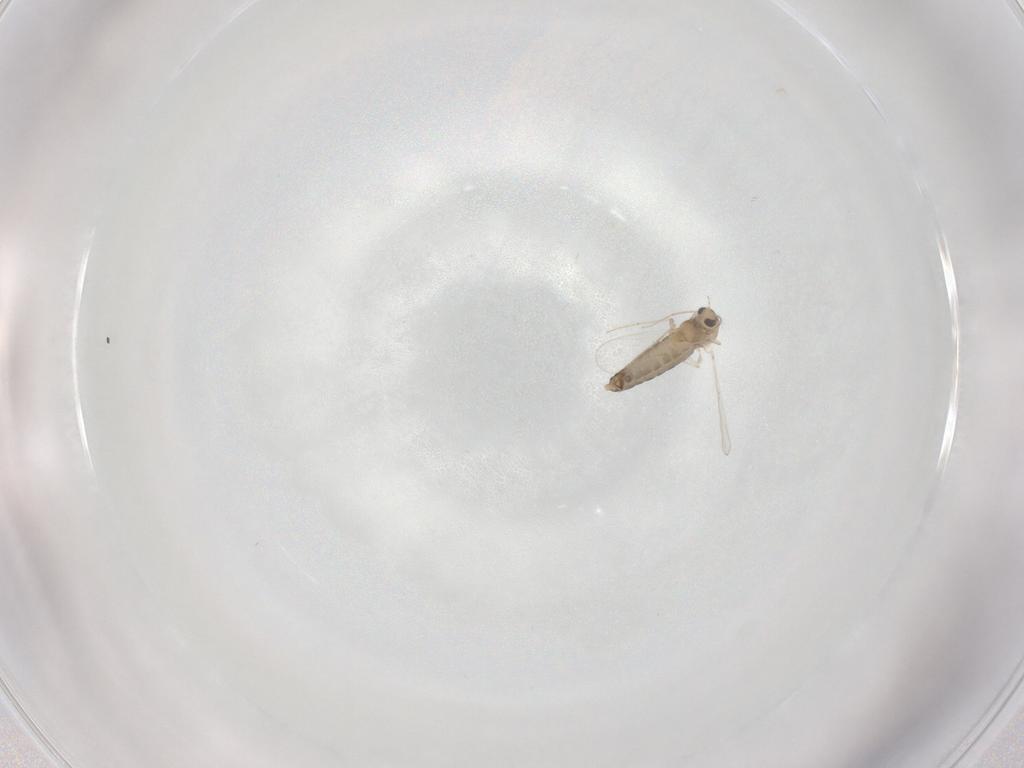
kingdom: Animalia
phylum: Arthropoda
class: Insecta
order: Diptera
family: Chironomidae
